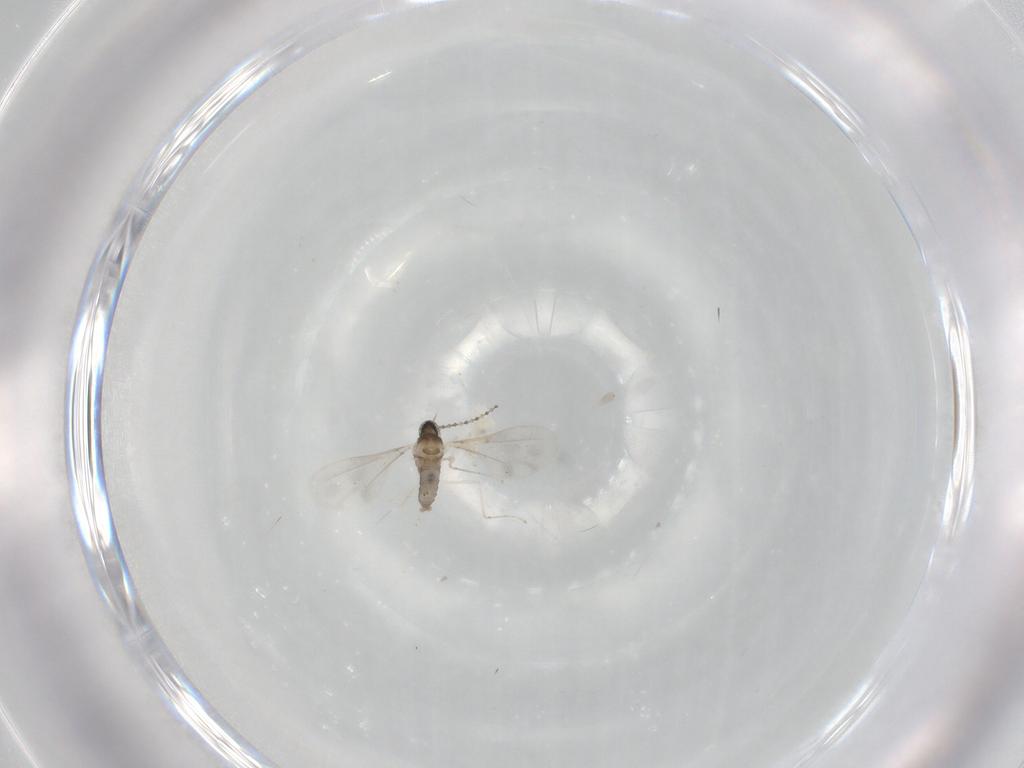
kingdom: Animalia
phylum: Arthropoda
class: Insecta
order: Diptera
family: Cecidomyiidae
